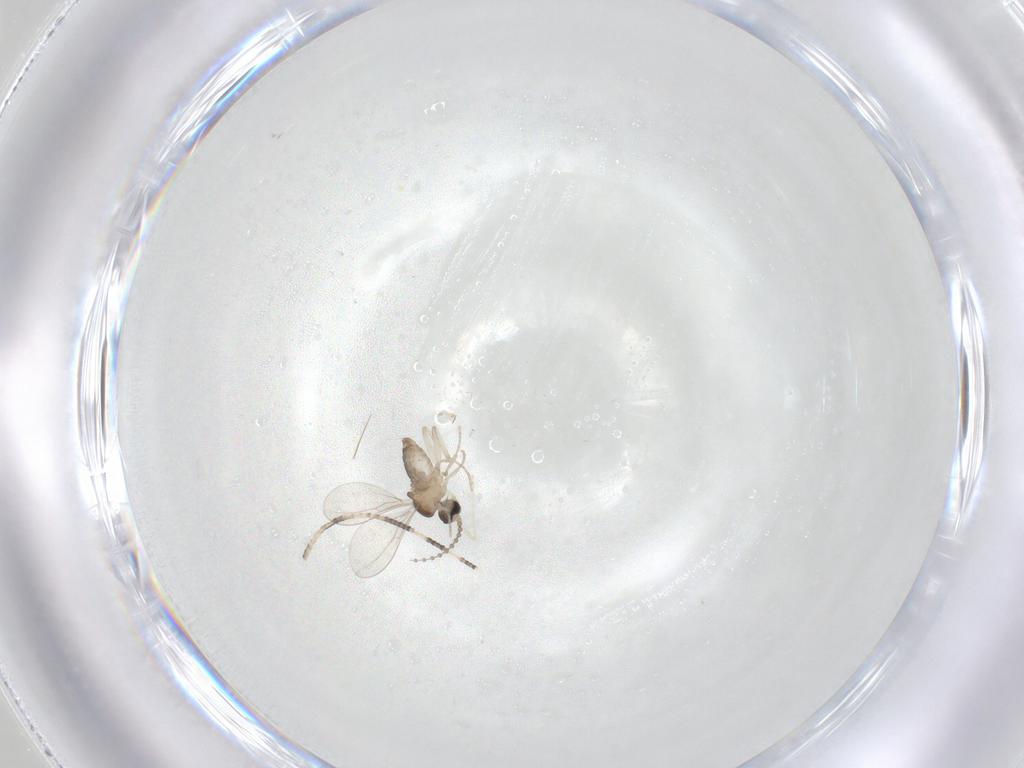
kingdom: Animalia
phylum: Arthropoda
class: Insecta
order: Diptera
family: Cecidomyiidae
